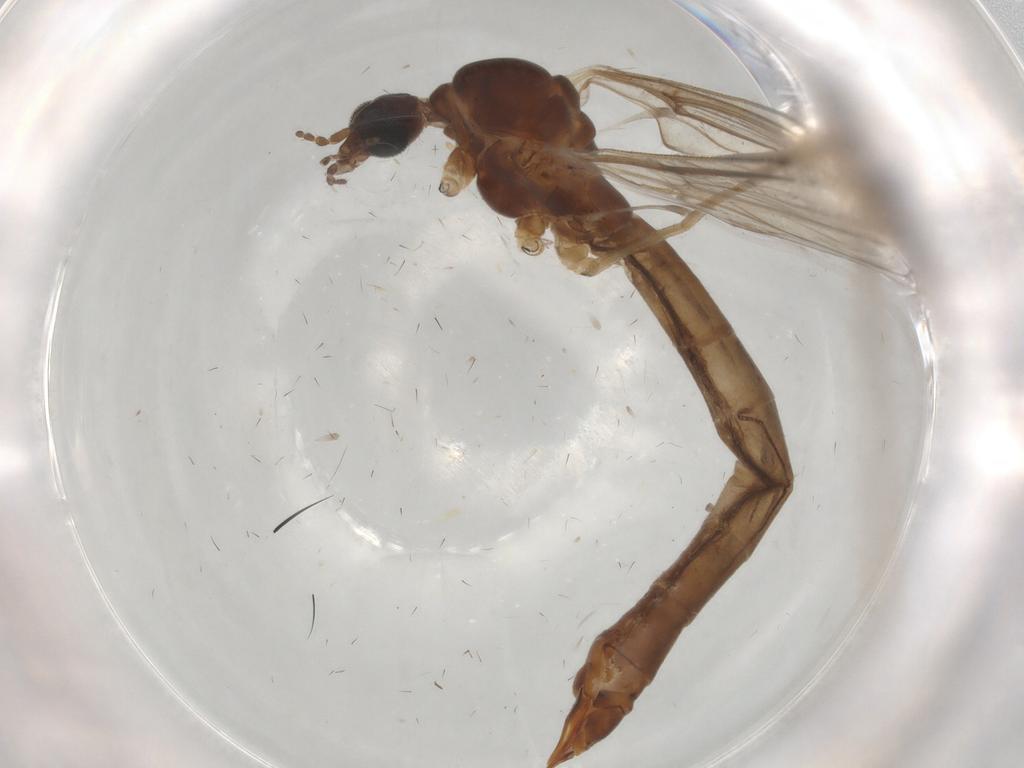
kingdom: Animalia
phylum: Arthropoda
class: Insecta
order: Diptera
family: Limoniidae
